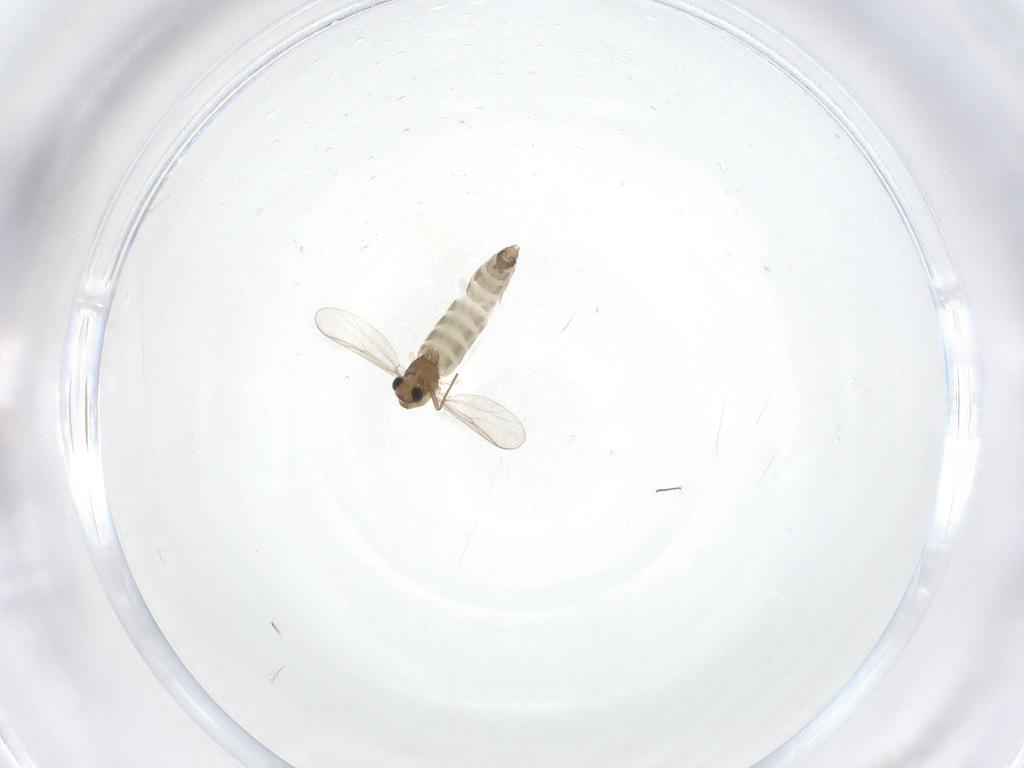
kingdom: Animalia
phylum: Arthropoda
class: Insecta
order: Diptera
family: Chironomidae
